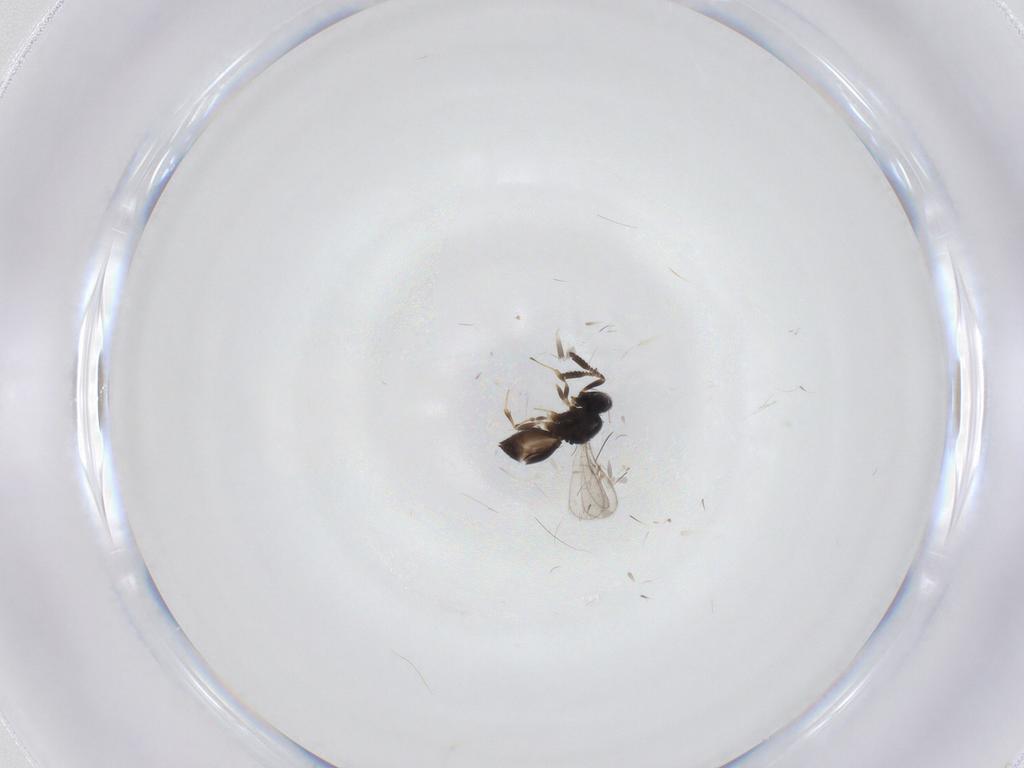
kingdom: Animalia
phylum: Arthropoda
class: Insecta
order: Hymenoptera
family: Scelionidae
